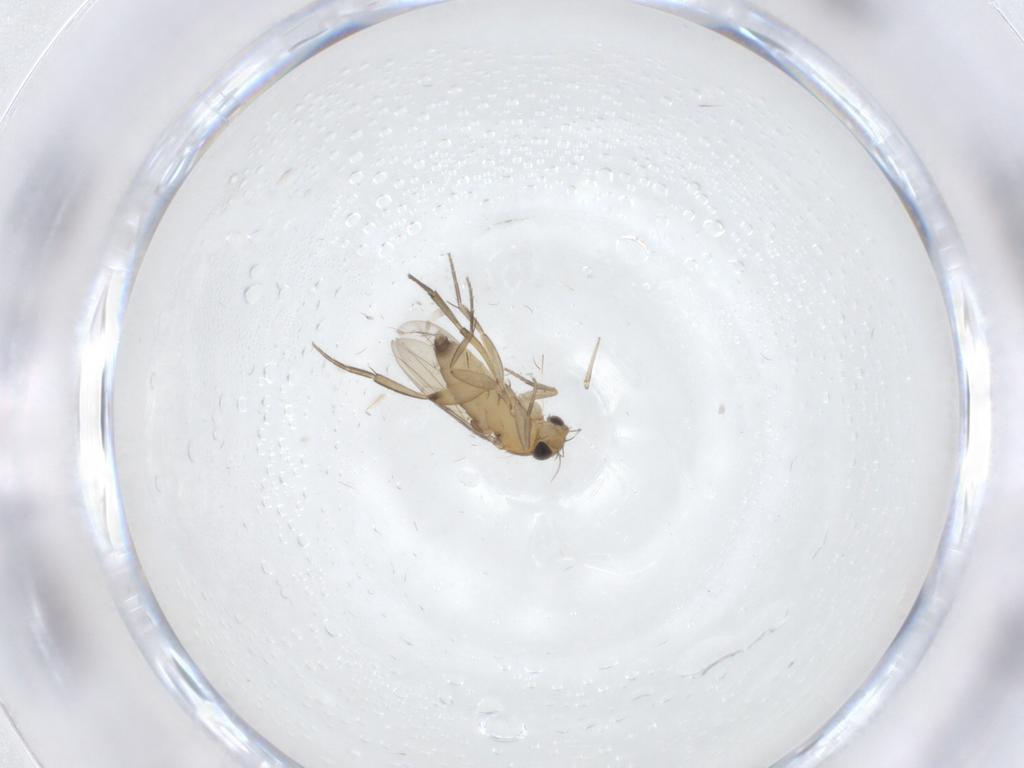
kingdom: Animalia
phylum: Arthropoda
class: Insecta
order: Diptera
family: Phoridae
